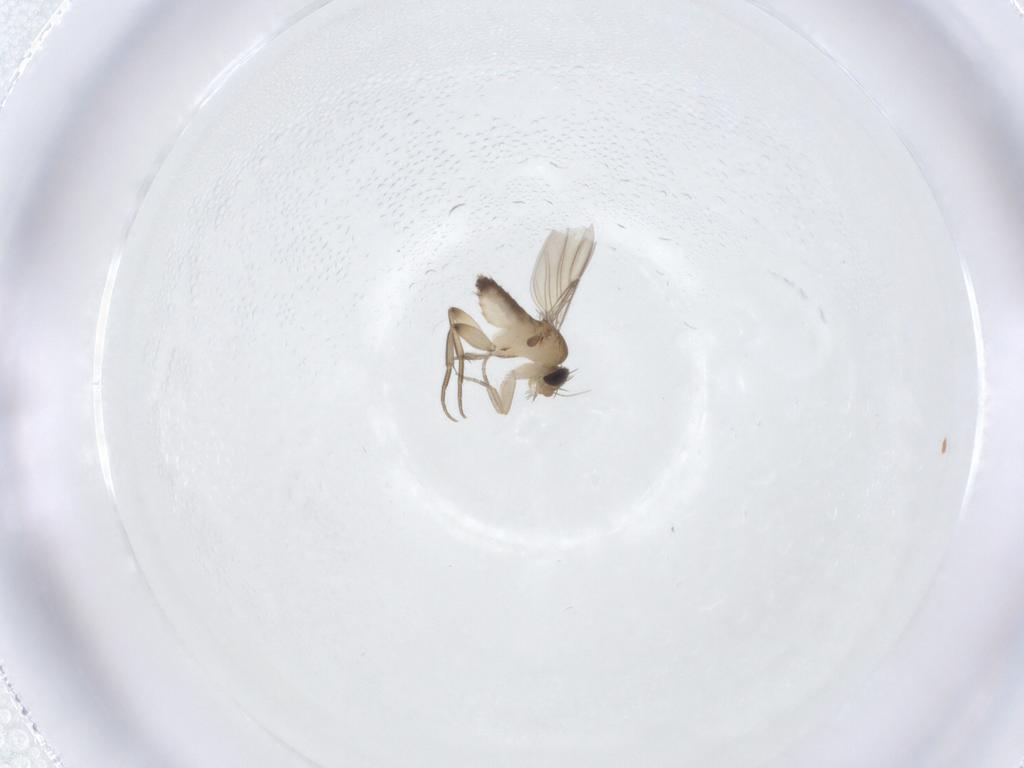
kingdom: Animalia
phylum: Arthropoda
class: Insecta
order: Diptera
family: Phoridae
